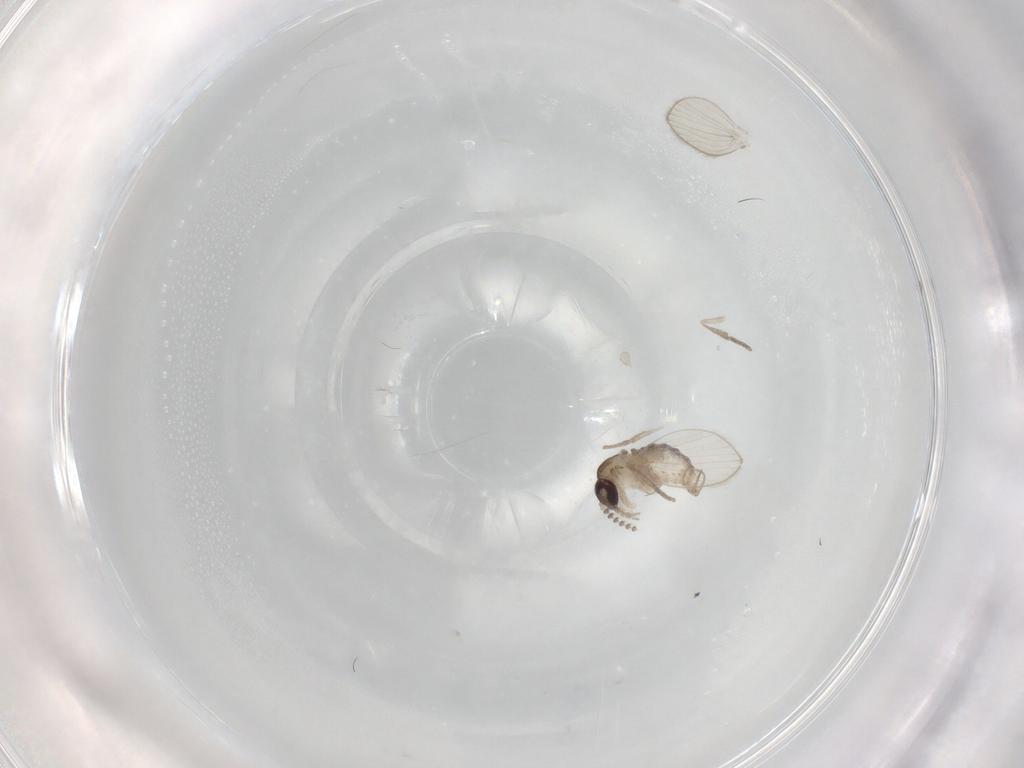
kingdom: Animalia
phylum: Arthropoda
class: Insecta
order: Diptera
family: Psychodidae
